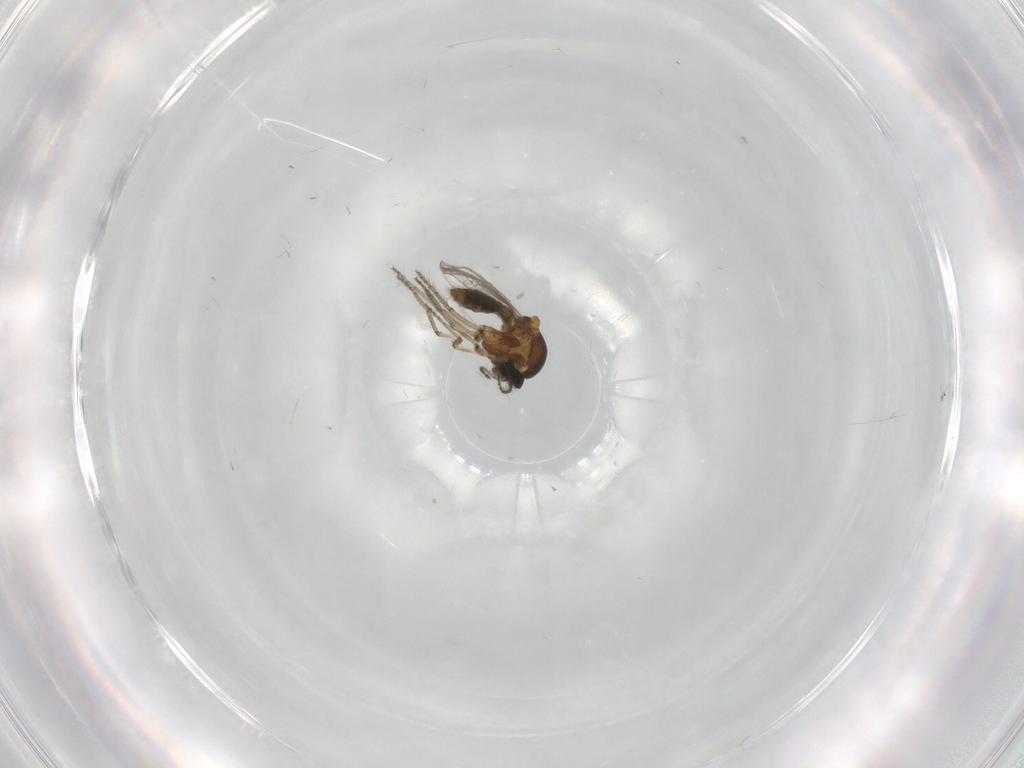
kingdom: Animalia
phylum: Arthropoda
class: Insecta
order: Diptera
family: Ceratopogonidae
